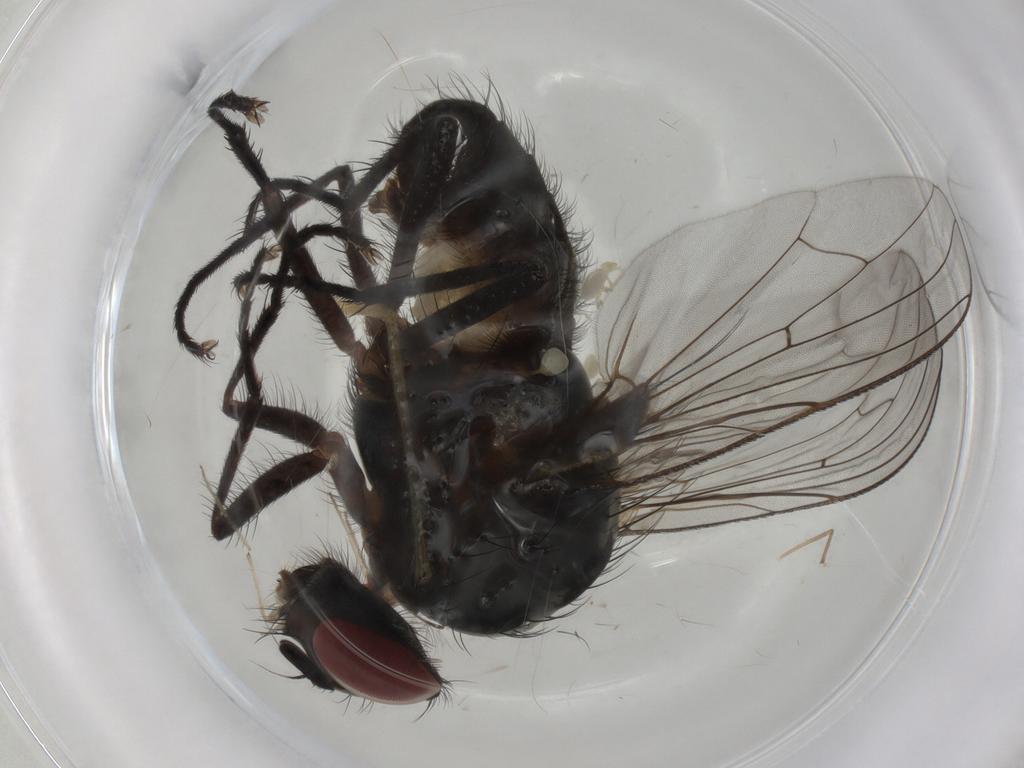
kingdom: Animalia
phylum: Arthropoda
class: Insecta
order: Diptera
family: Anthomyiidae
